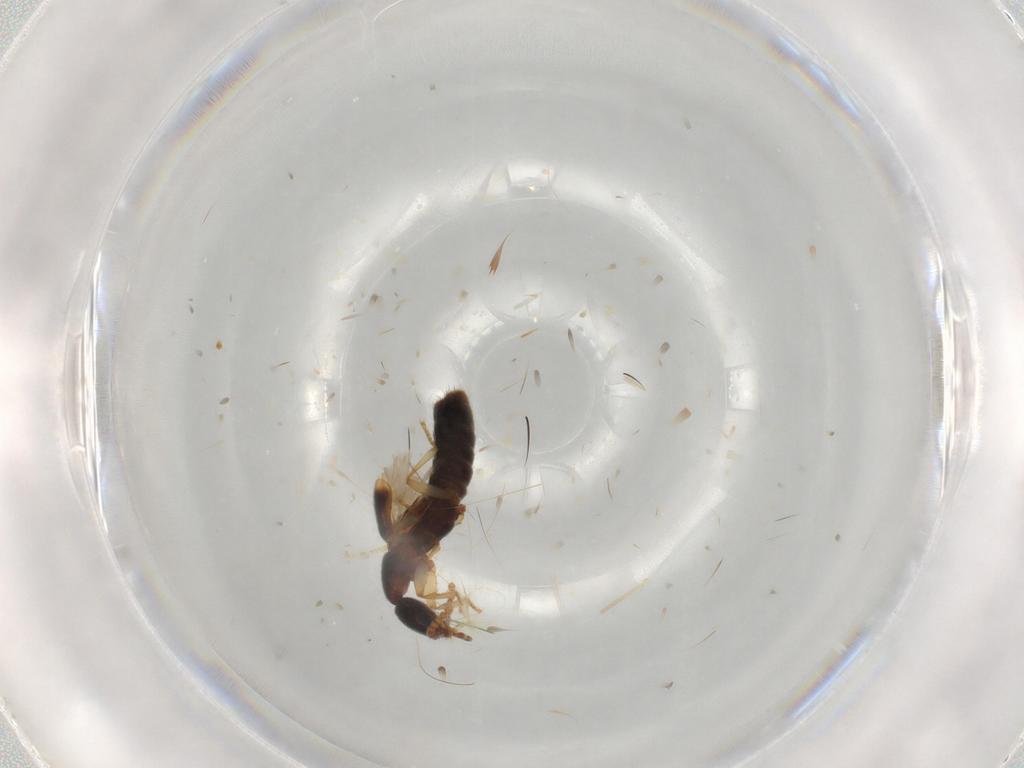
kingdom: Animalia
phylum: Arthropoda
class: Insecta
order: Coleoptera
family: Staphylinidae
